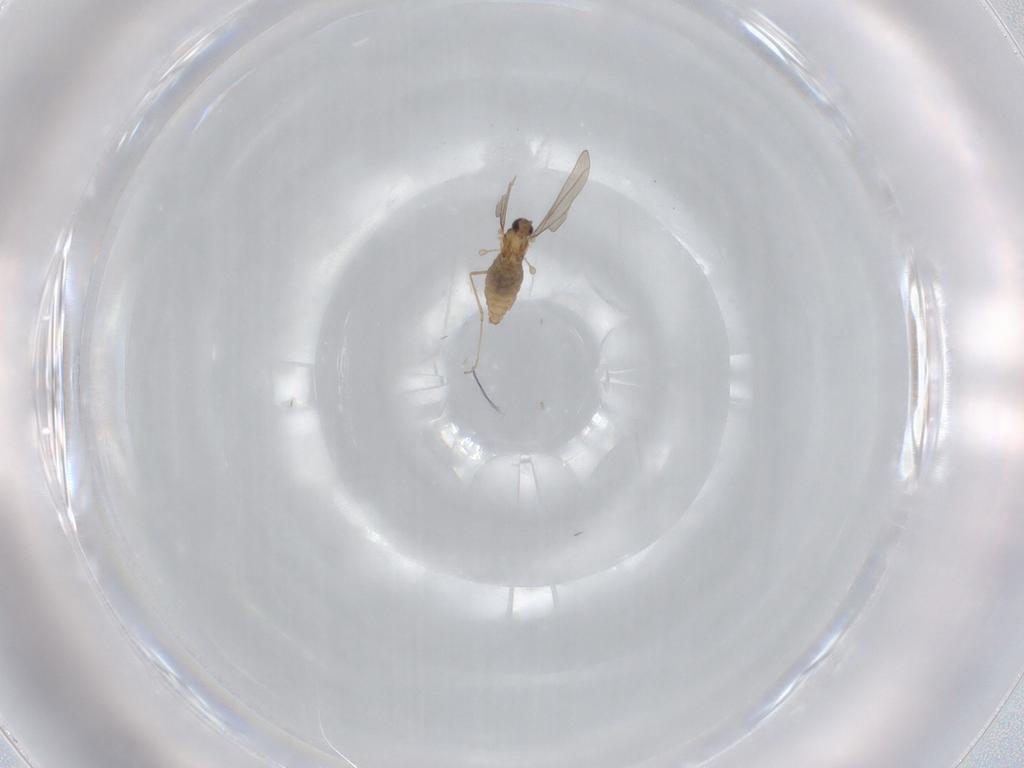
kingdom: Animalia
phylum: Arthropoda
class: Insecta
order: Diptera
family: Cecidomyiidae
